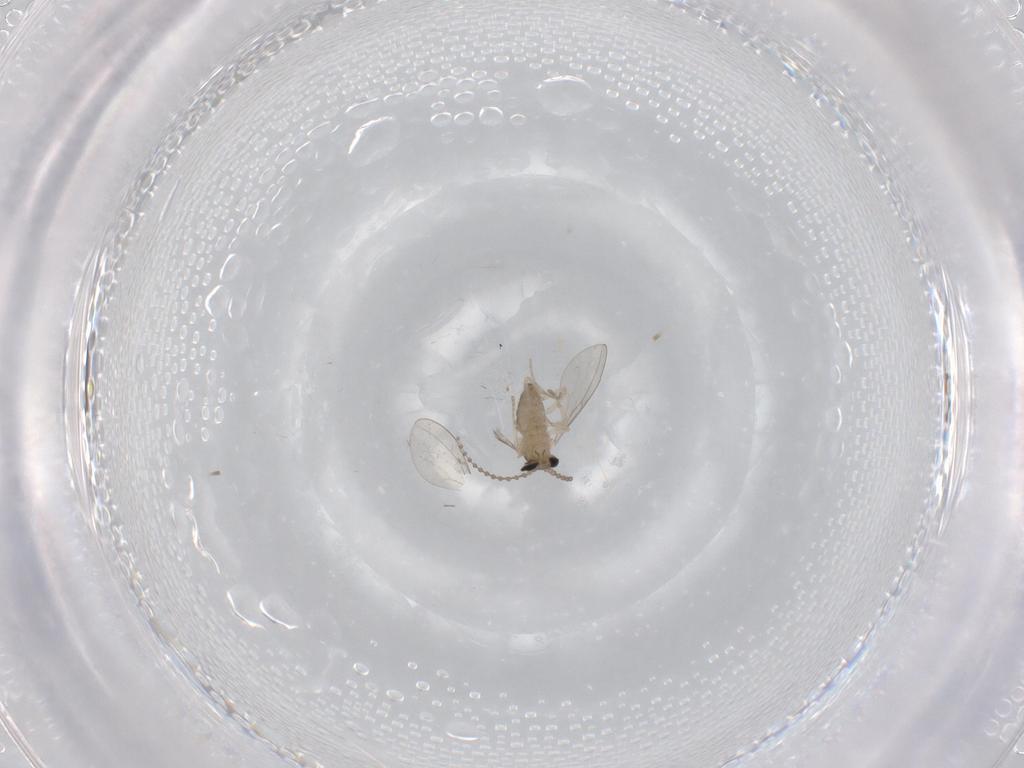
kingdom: Animalia
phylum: Arthropoda
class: Insecta
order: Diptera
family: Cecidomyiidae
